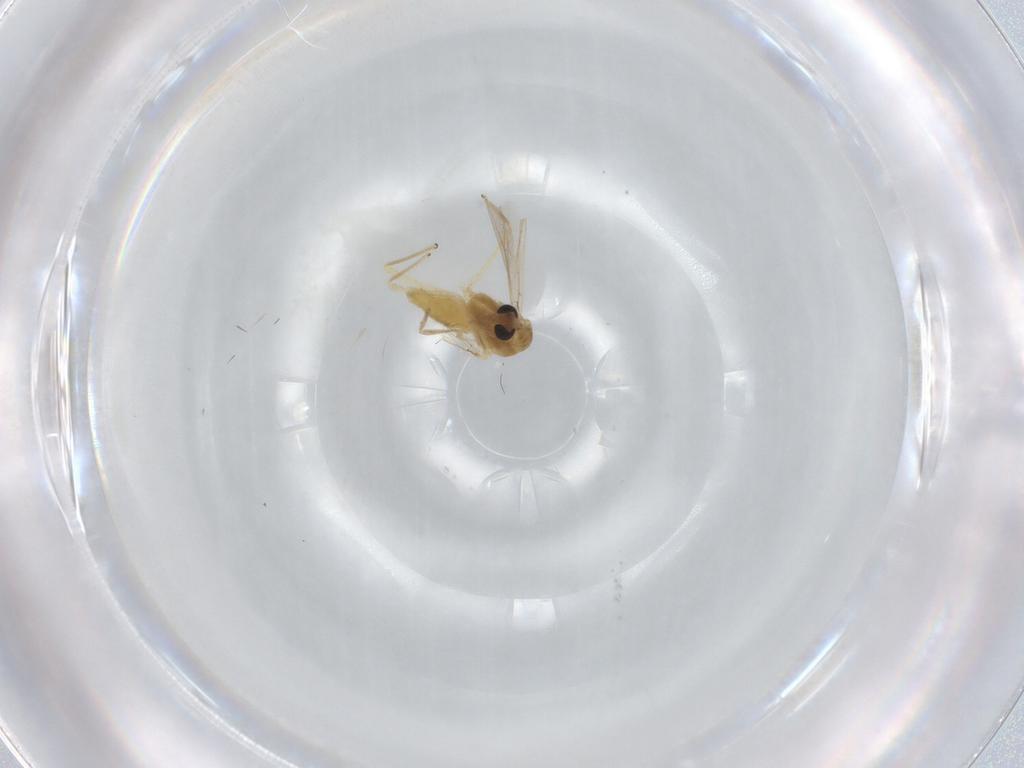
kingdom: Animalia
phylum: Arthropoda
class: Insecta
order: Diptera
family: Chironomidae
